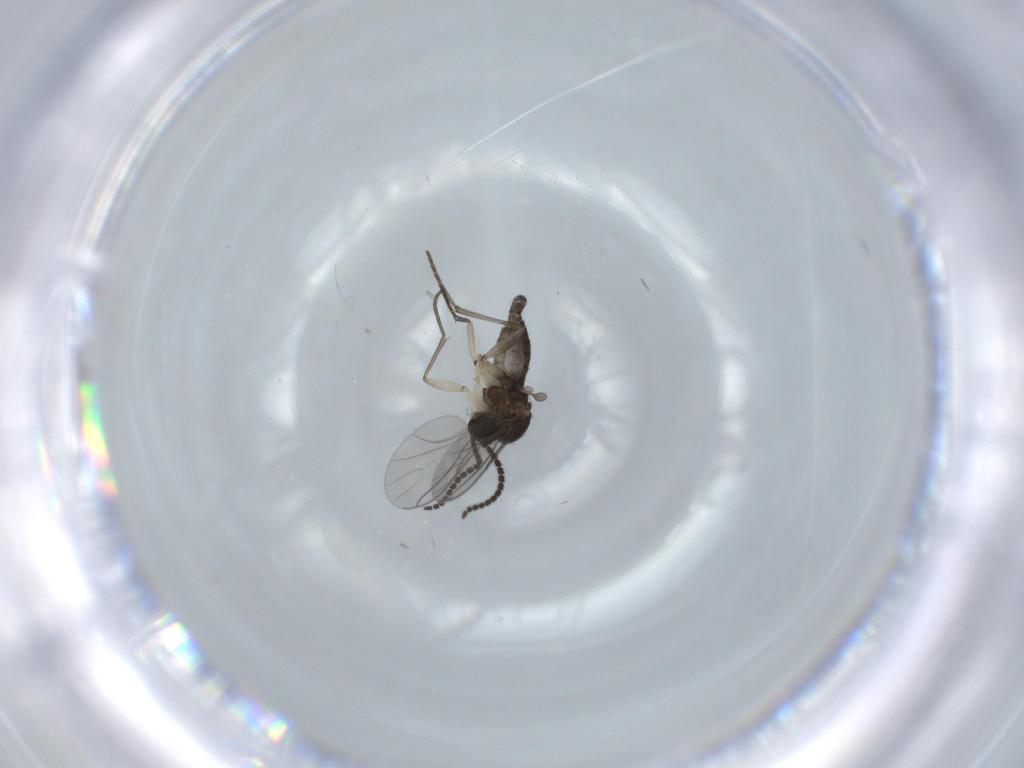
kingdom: Animalia
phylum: Arthropoda
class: Insecta
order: Diptera
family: Sciaridae
